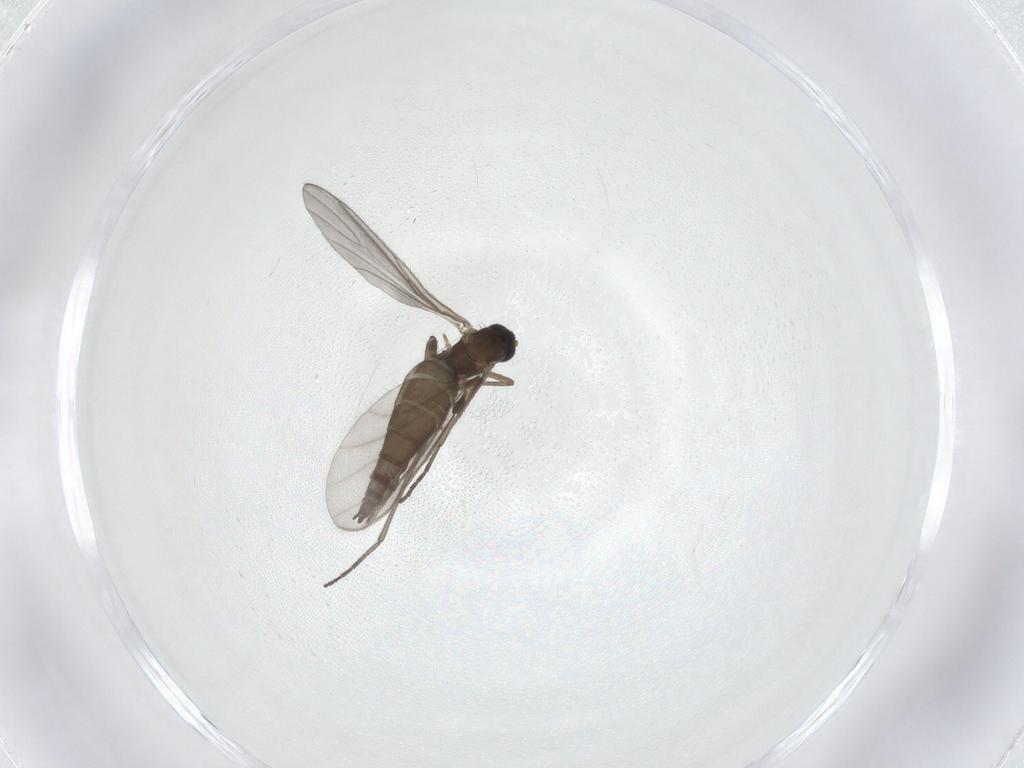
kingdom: Animalia
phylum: Arthropoda
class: Insecta
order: Diptera
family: Sciaridae
